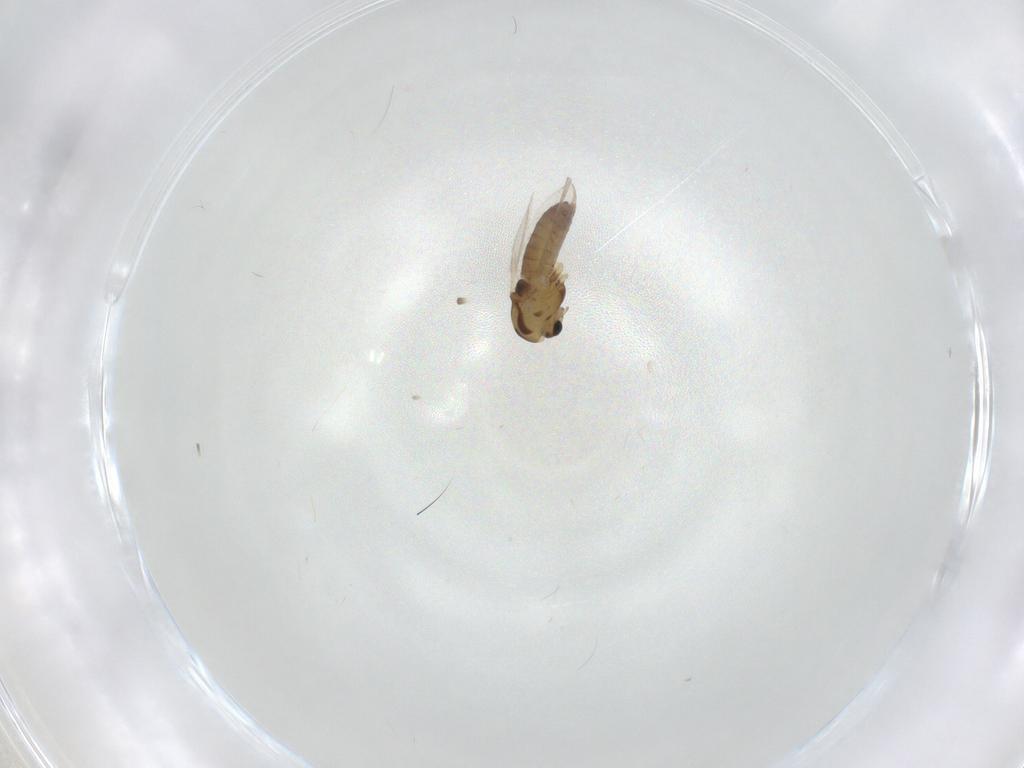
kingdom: Animalia
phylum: Arthropoda
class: Insecta
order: Diptera
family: Chironomidae
